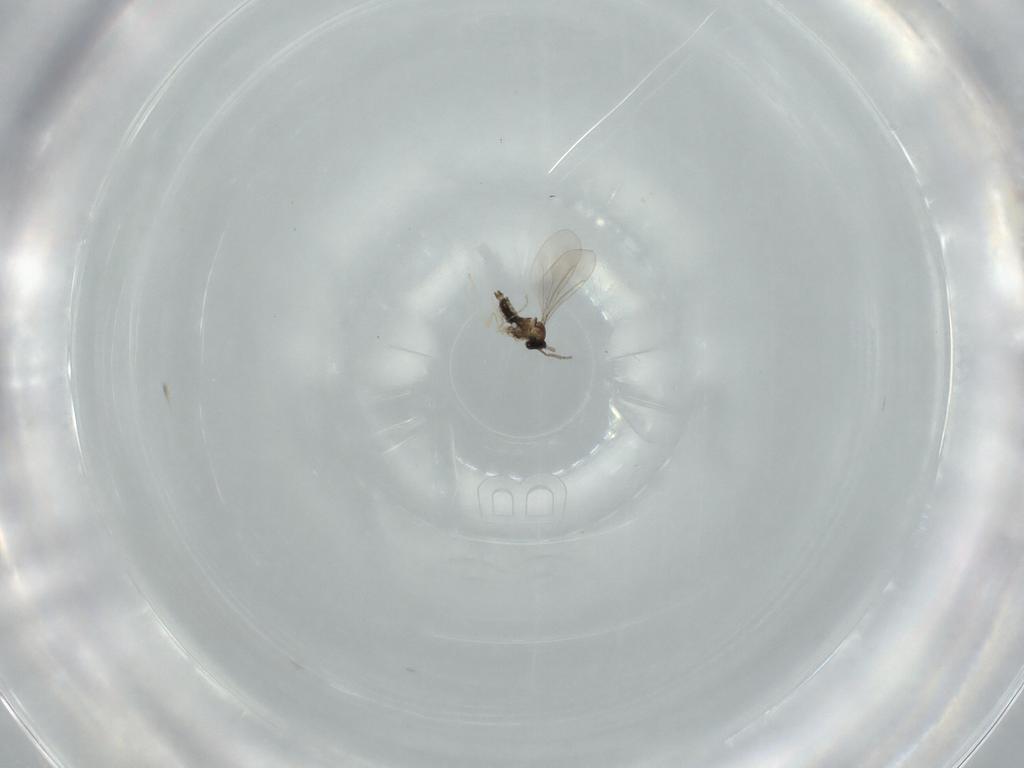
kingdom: Animalia
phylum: Arthropoda
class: Insecta
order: Diptera
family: Cecidomyiidae
